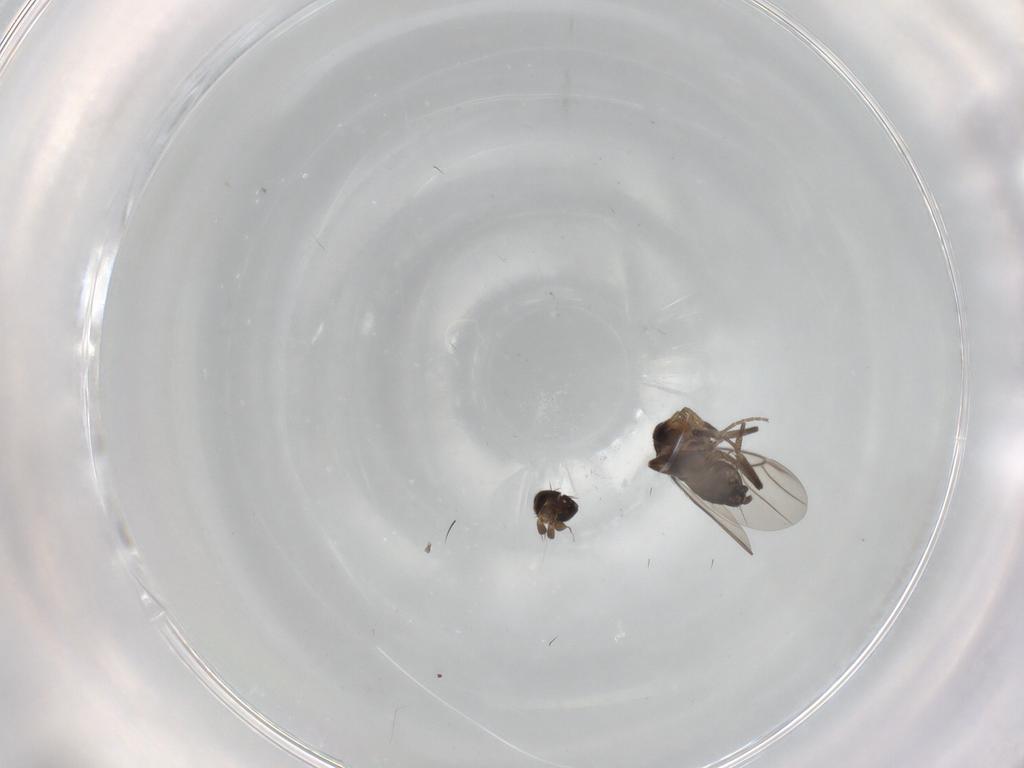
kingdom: Animalia
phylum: Arthropoda
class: Insecta
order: Diptera
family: Phoridae
